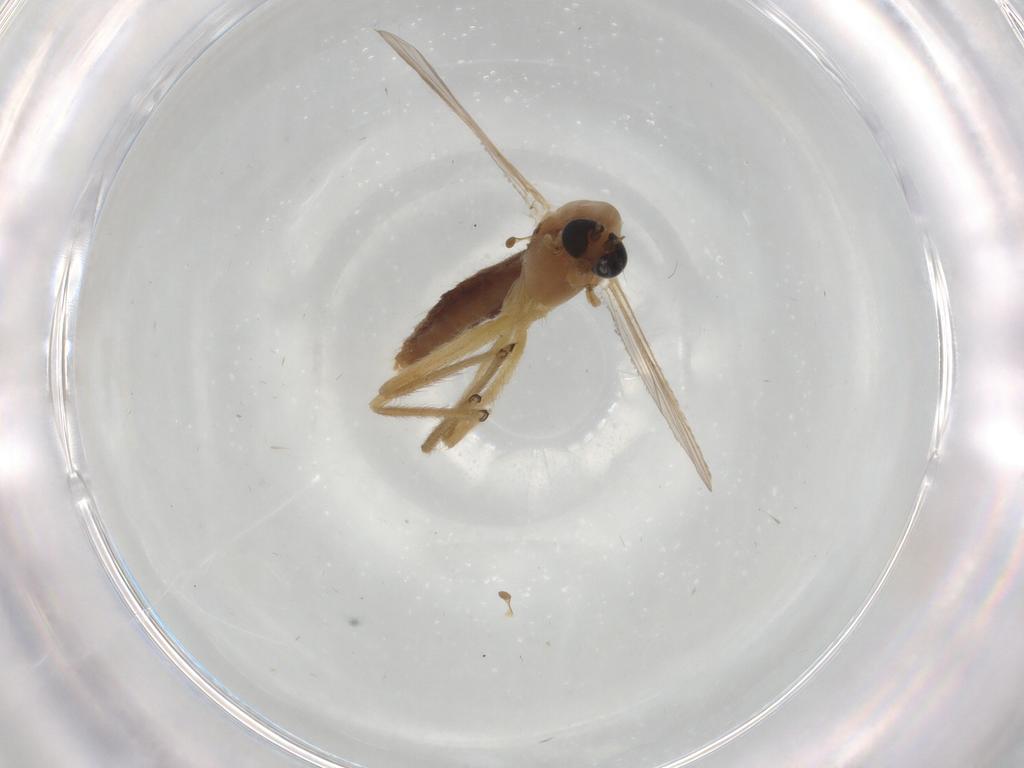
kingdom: Animalia
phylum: Arthropoda
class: Insecta
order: Diptera
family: Chironomidae
